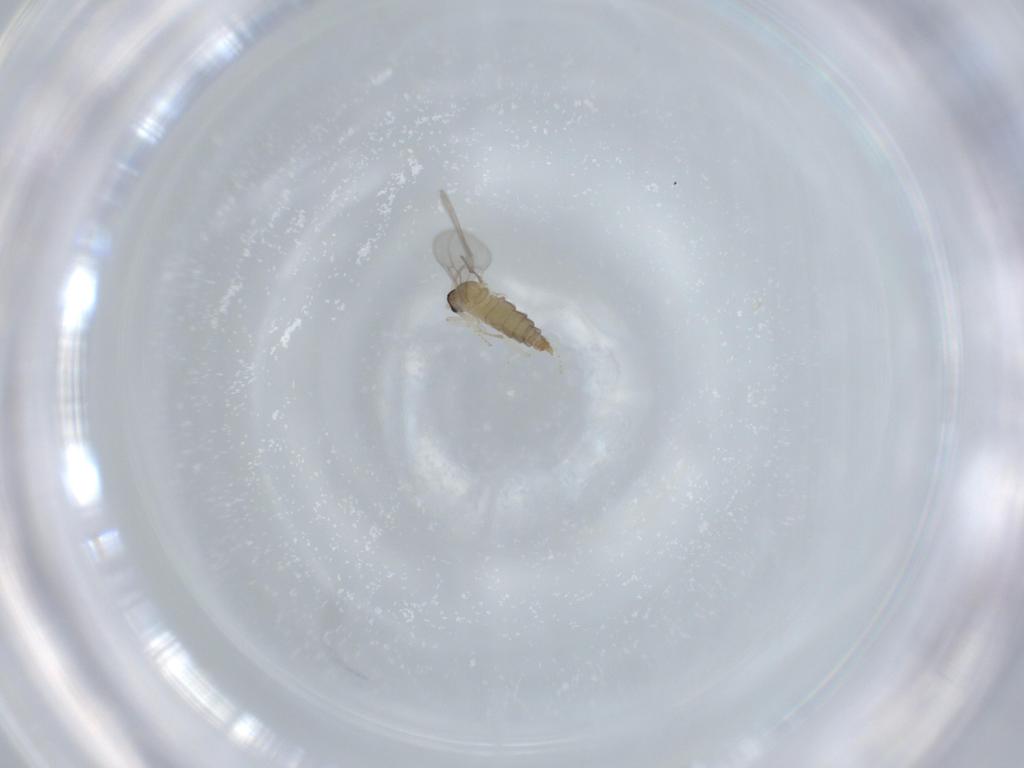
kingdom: Animalia
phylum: Arthropoda
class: Insecta
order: Diptera
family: Cecidomyiidae
